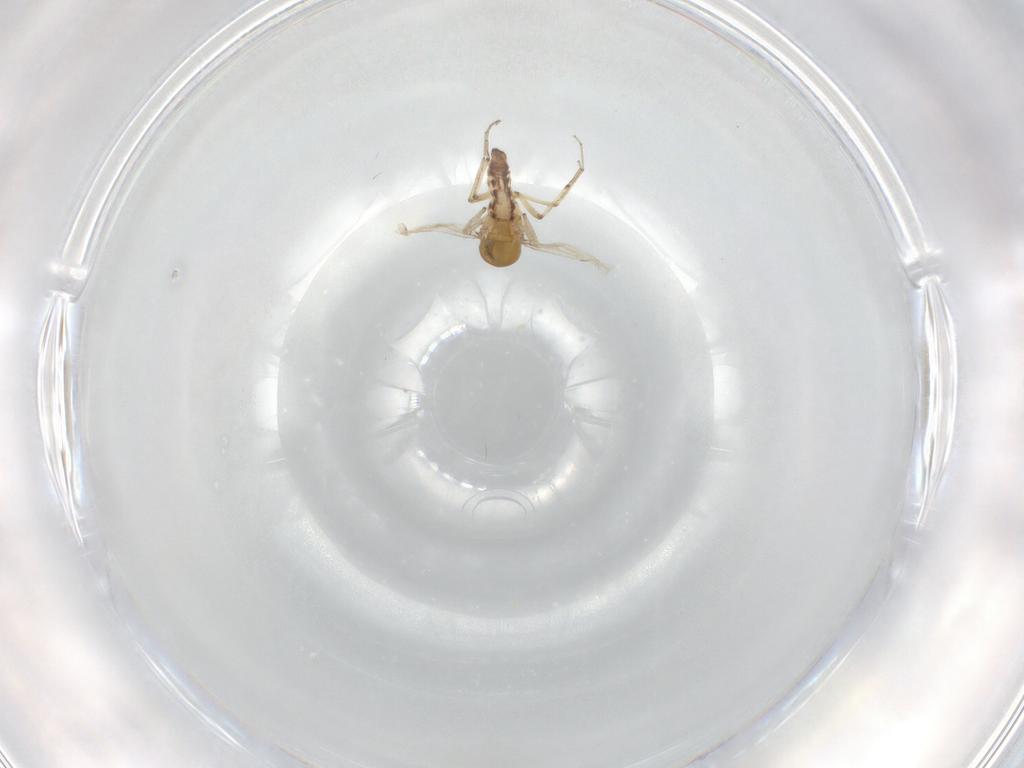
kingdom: Animalia
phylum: Arthropoda
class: Insecta
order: Diptera
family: Ceratopogonidae
